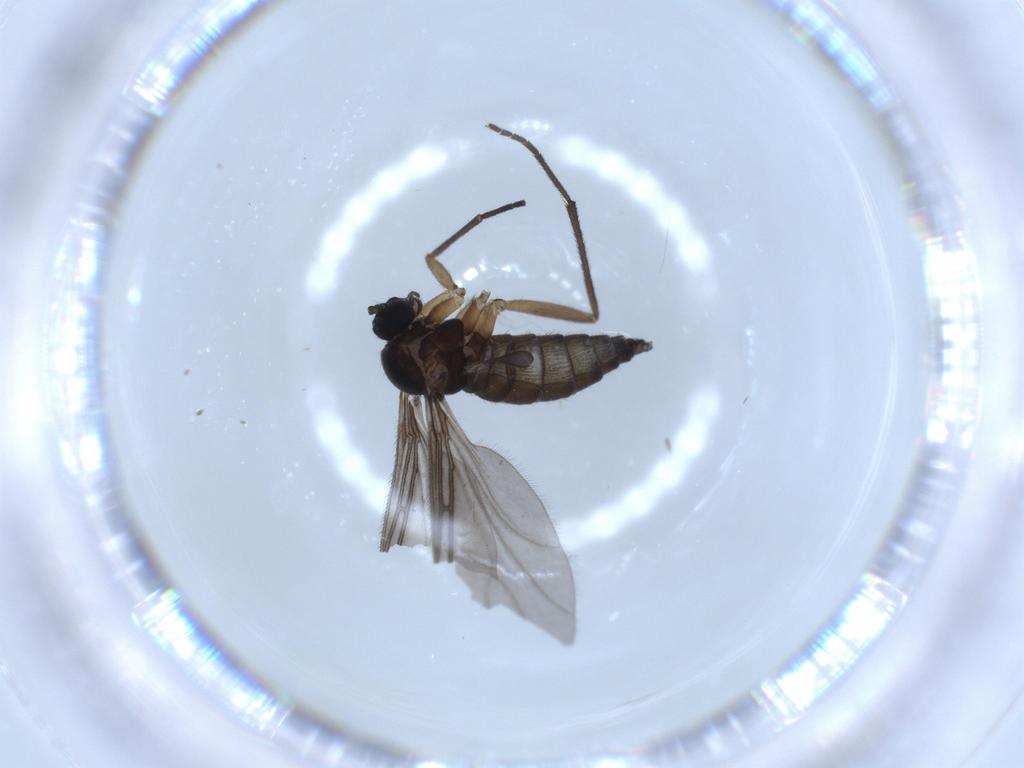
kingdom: Animalia
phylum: Arthropoda
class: Insecta
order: Diptera
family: Sciaridae
